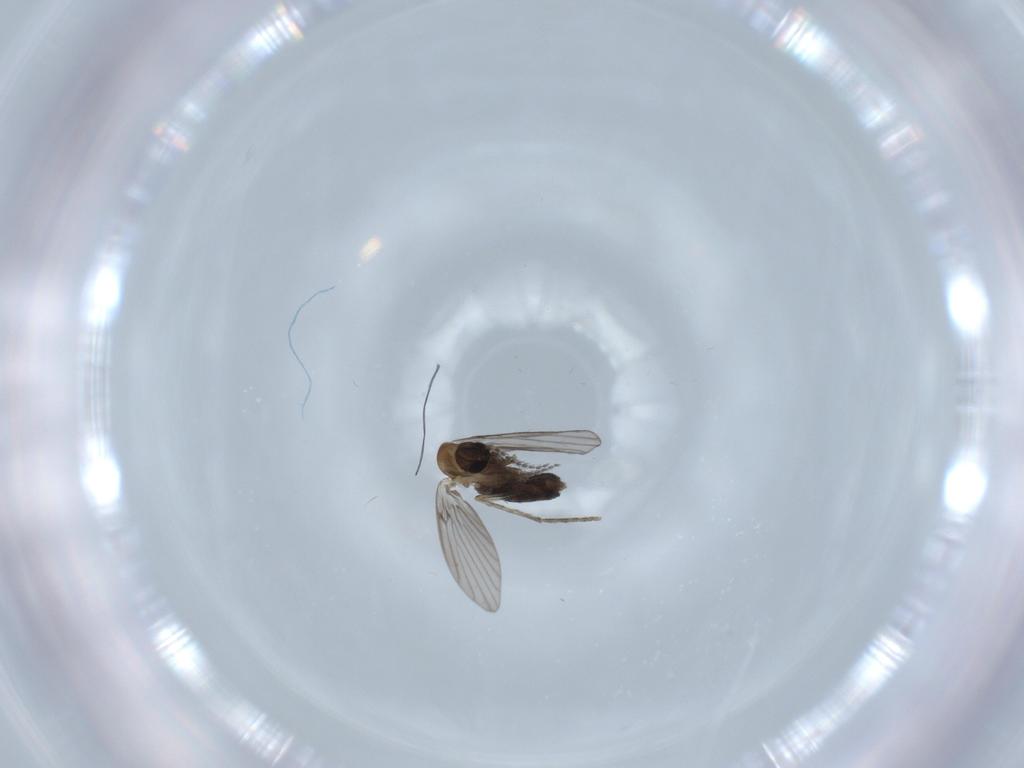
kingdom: Animalia
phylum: Arthropoda
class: Insecta
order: Diptera
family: Psychodidae
